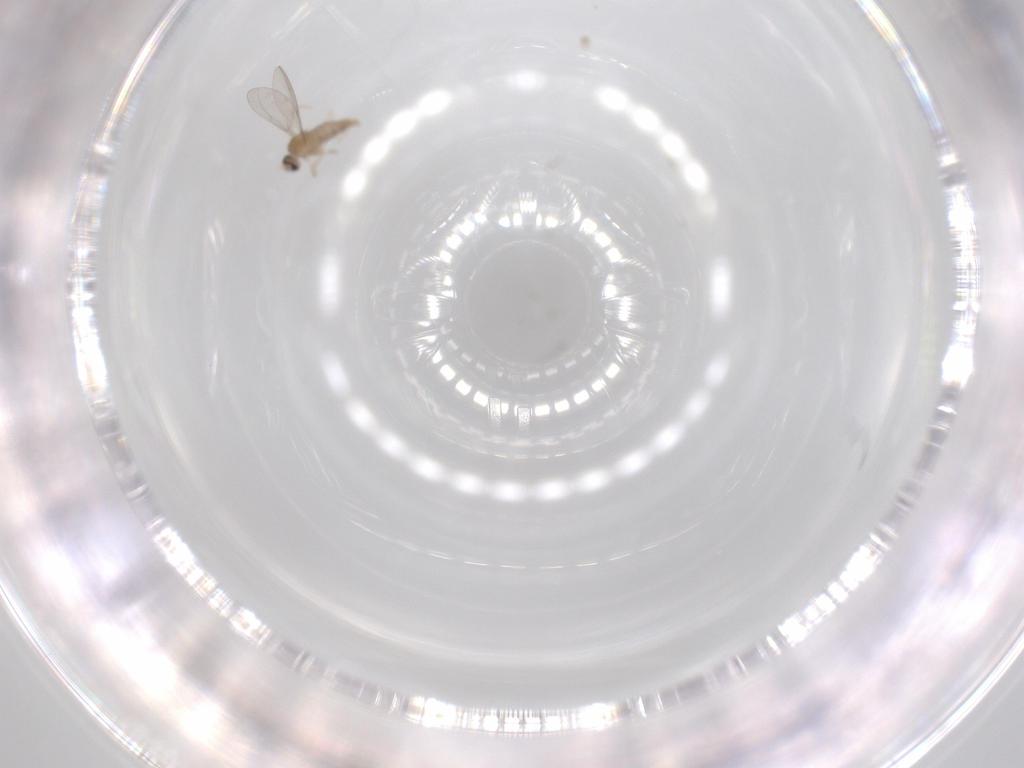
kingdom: Animalia
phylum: Arthropoda
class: Insecta
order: Diptera
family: Cecidomyiidae
